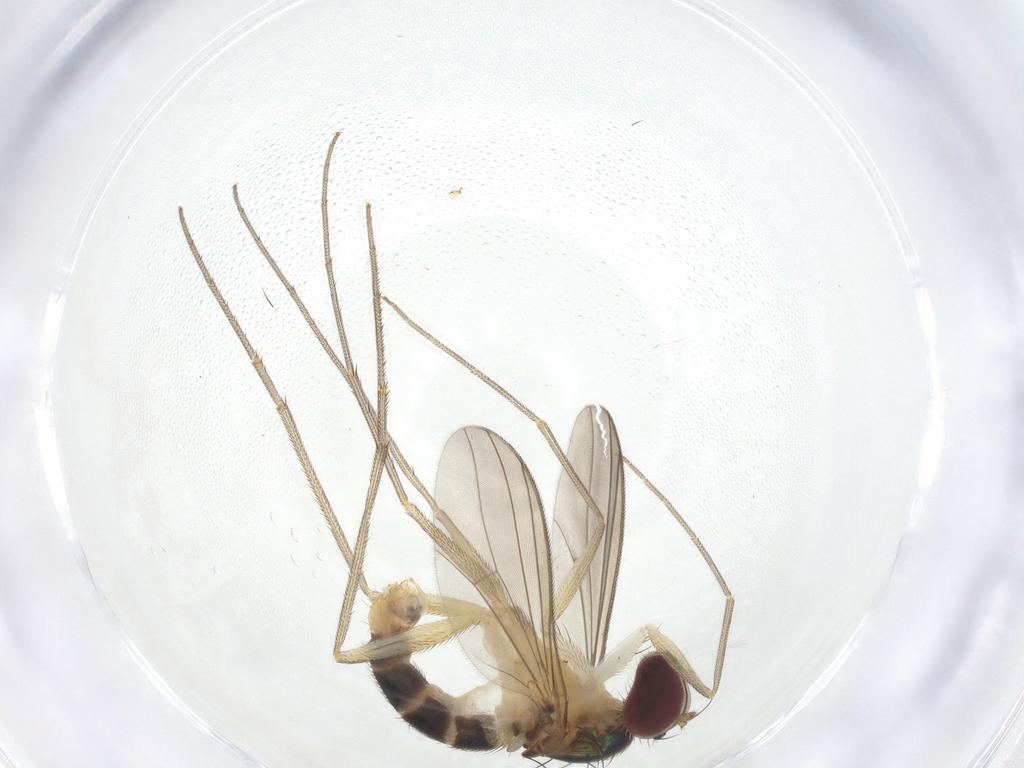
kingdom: Animalia
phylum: Arthropoda
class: Insecta
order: Diptera
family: Dolichopodidae
